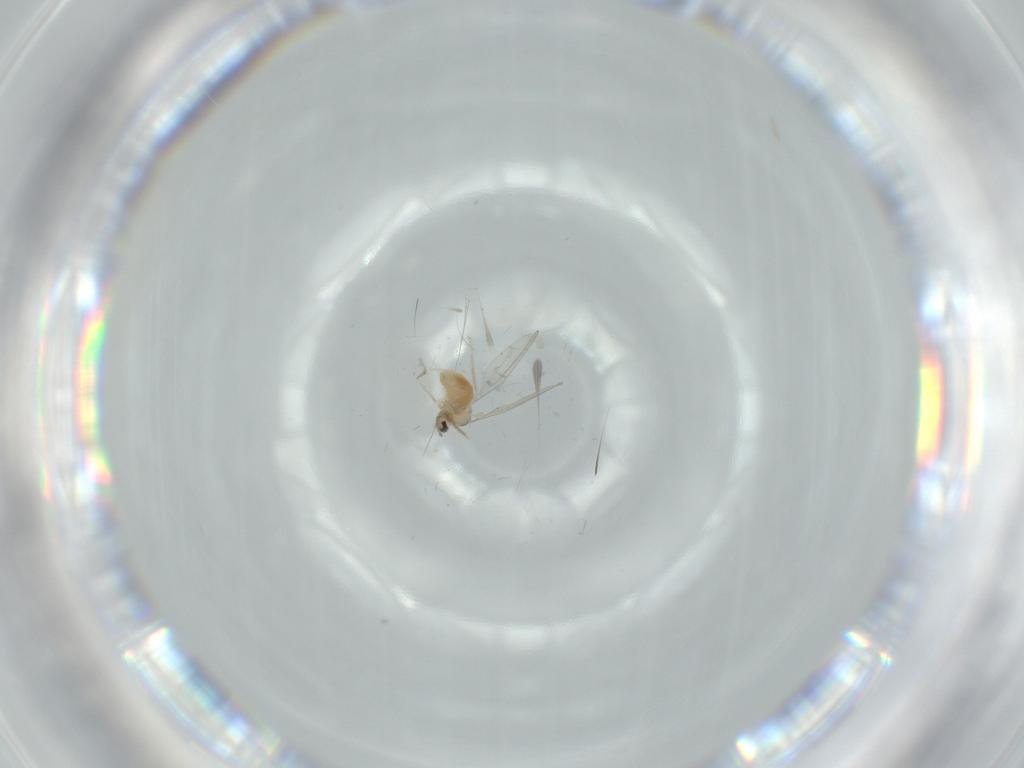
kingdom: Animalia
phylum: Arthropoda
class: Insecta
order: Diptera
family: Cecidomyiidae
